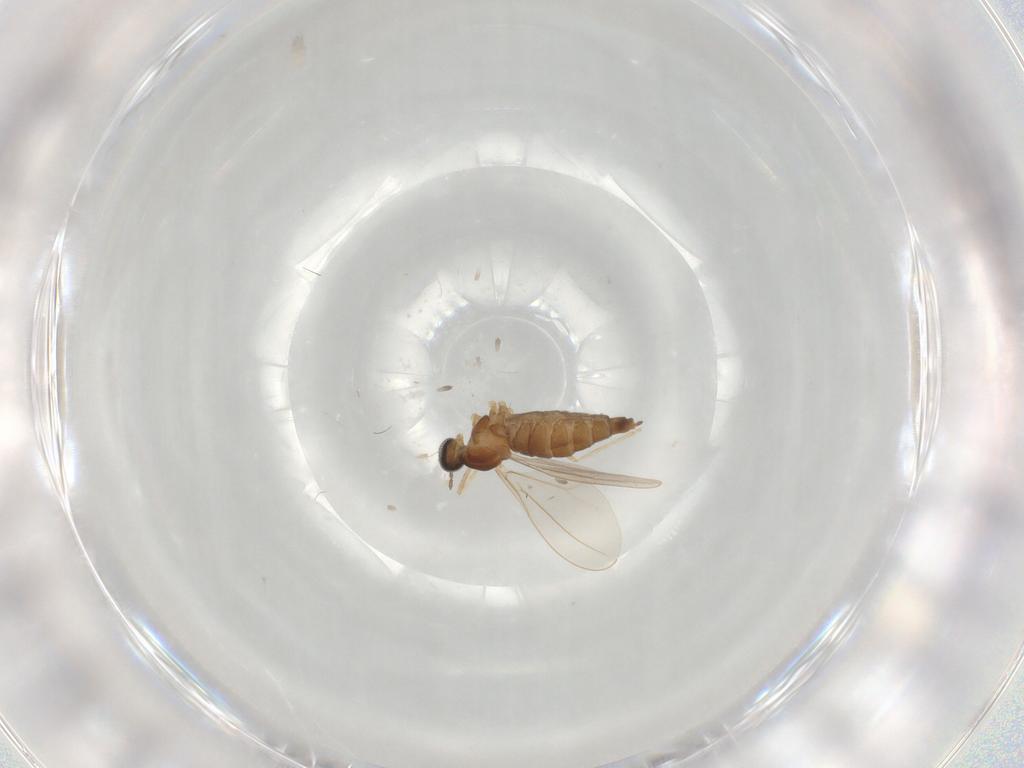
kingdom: Animalia
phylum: Arthropoda
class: Insecta
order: Diptera
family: Cecidomyiidae
